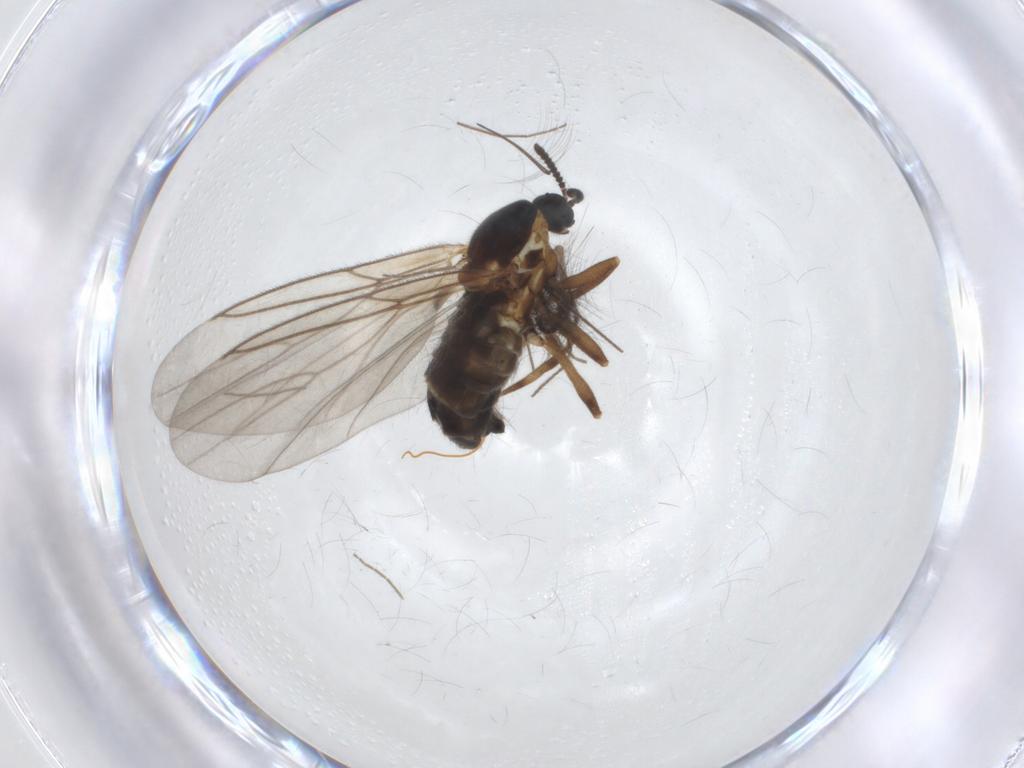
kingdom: Animalia
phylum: Arthropoda
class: Insecta
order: Diptera
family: Scatopsidae
